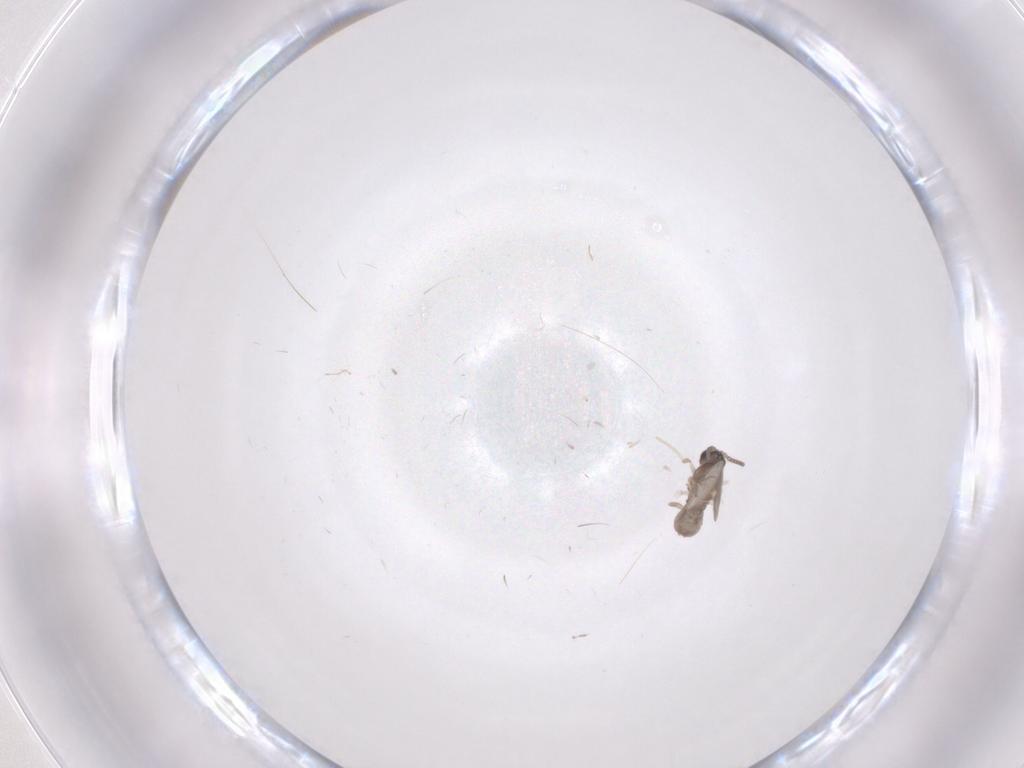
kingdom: Animalia
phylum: Arthropoda
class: Insecta
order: Diptera
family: Cecidomyiidae
